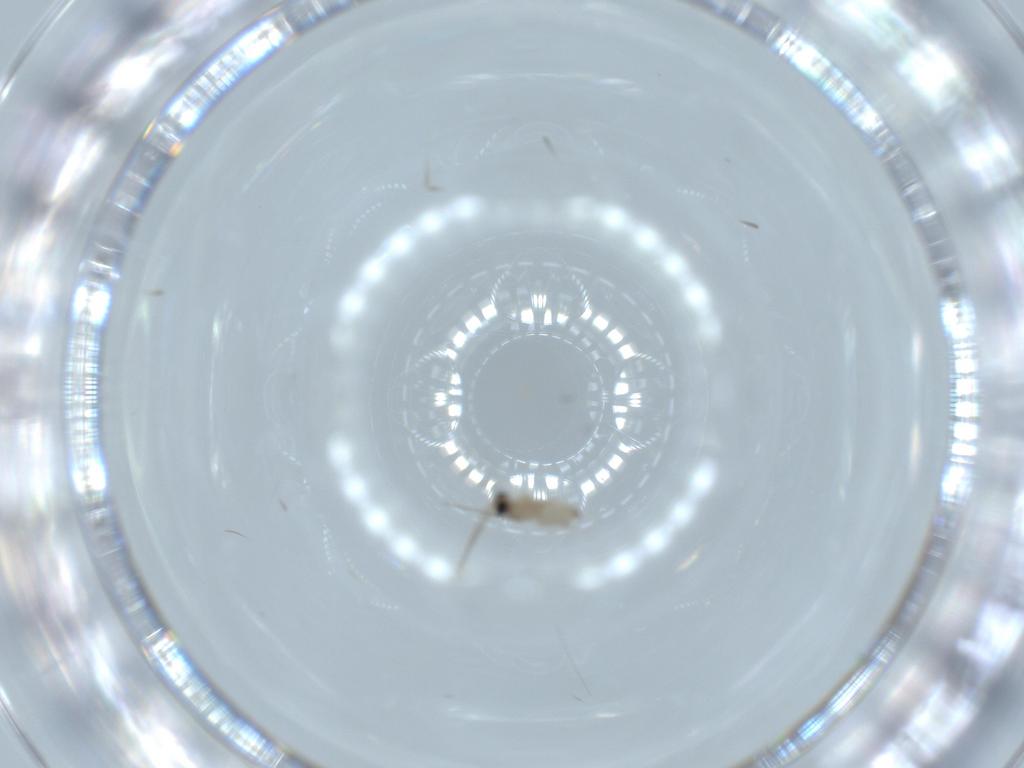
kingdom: Animalia
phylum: Arthropoda
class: Insecta
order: Diptera
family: Cecidomyiidae
